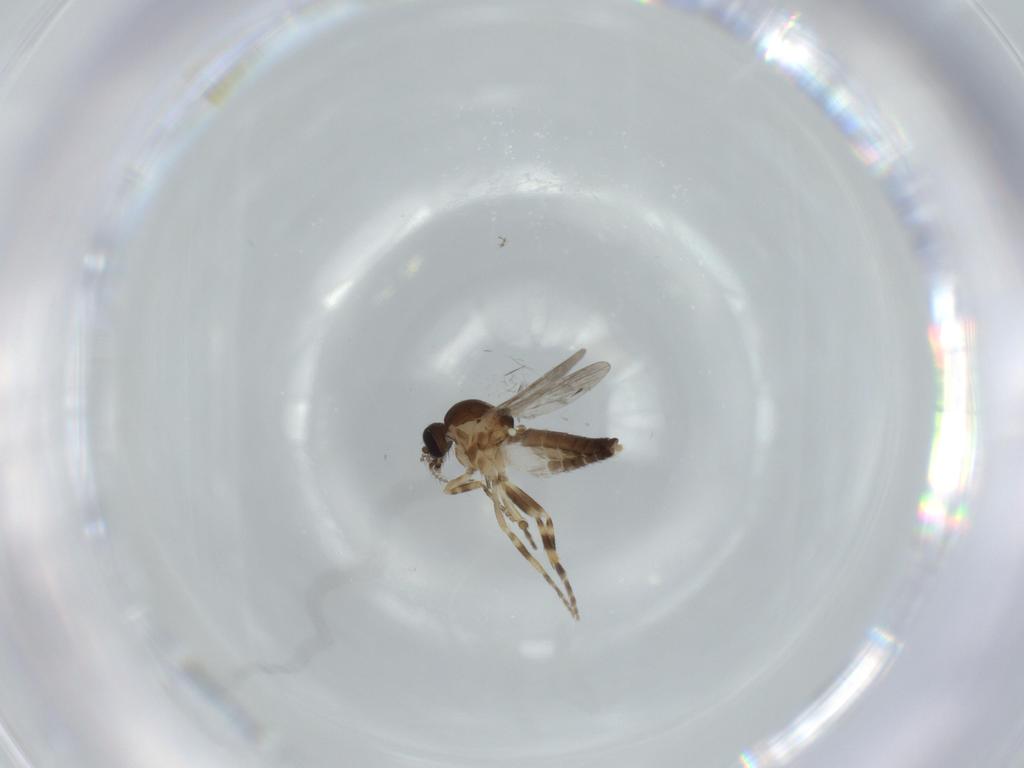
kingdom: Animalia
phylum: Arthropoda
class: Insecta
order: Diptera
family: Ceratopogonidae
